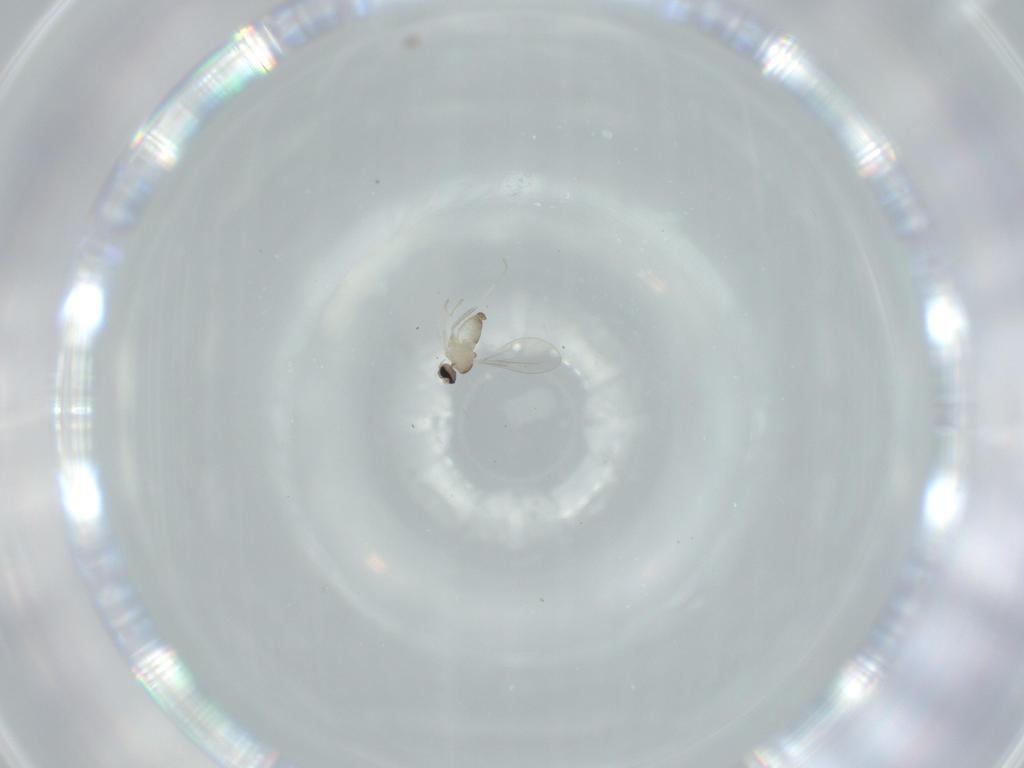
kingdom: Animalia
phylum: Arthropoda
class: Insecta
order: Diptera
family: Cecidomyiidae
